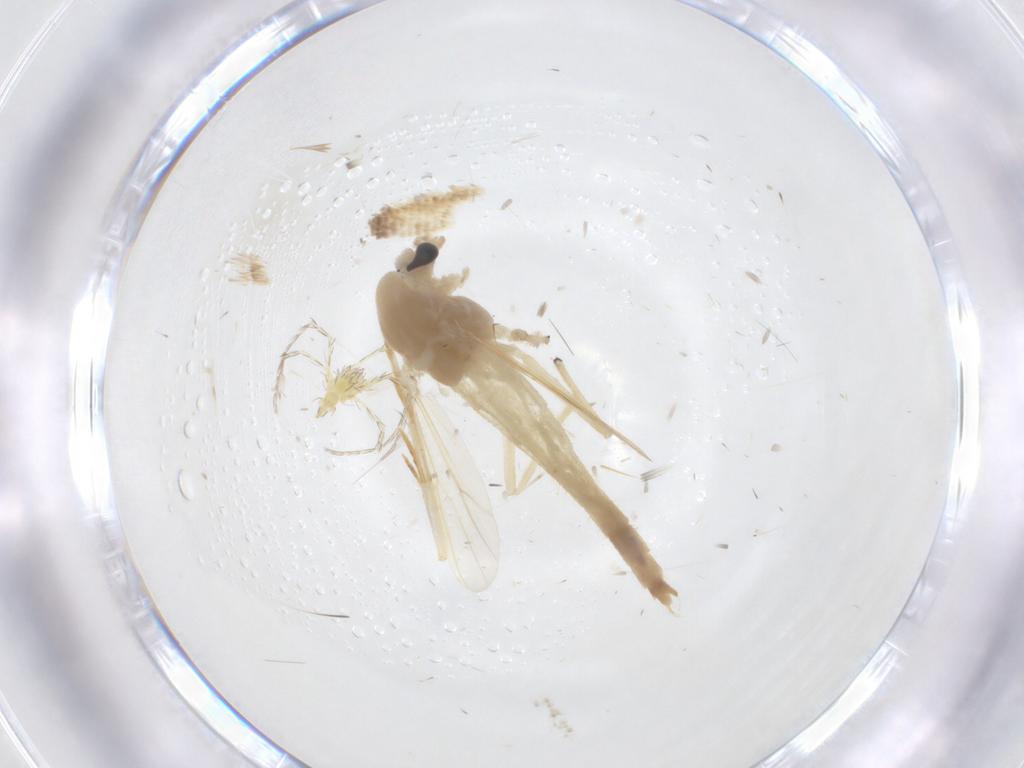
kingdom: Animalia
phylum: Arthropoda
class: Insecta
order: Diptera
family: Chironomidae
